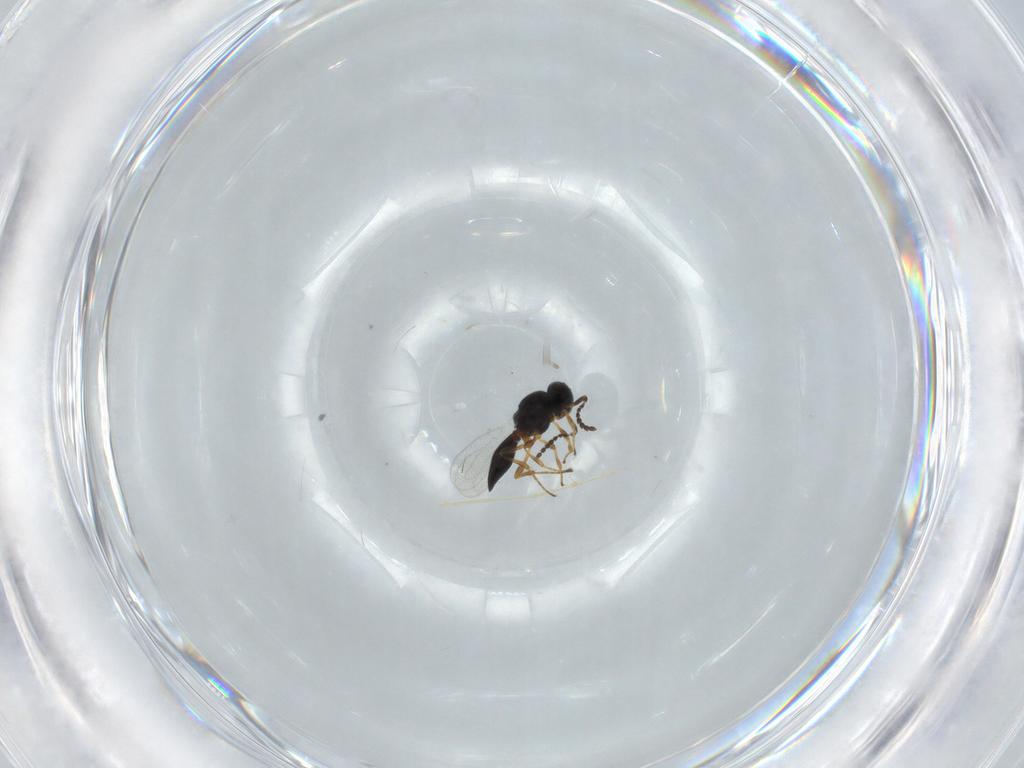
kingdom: Animalia
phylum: Arthropoda
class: Insecta
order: Hymenoptera
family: Platygastridae
